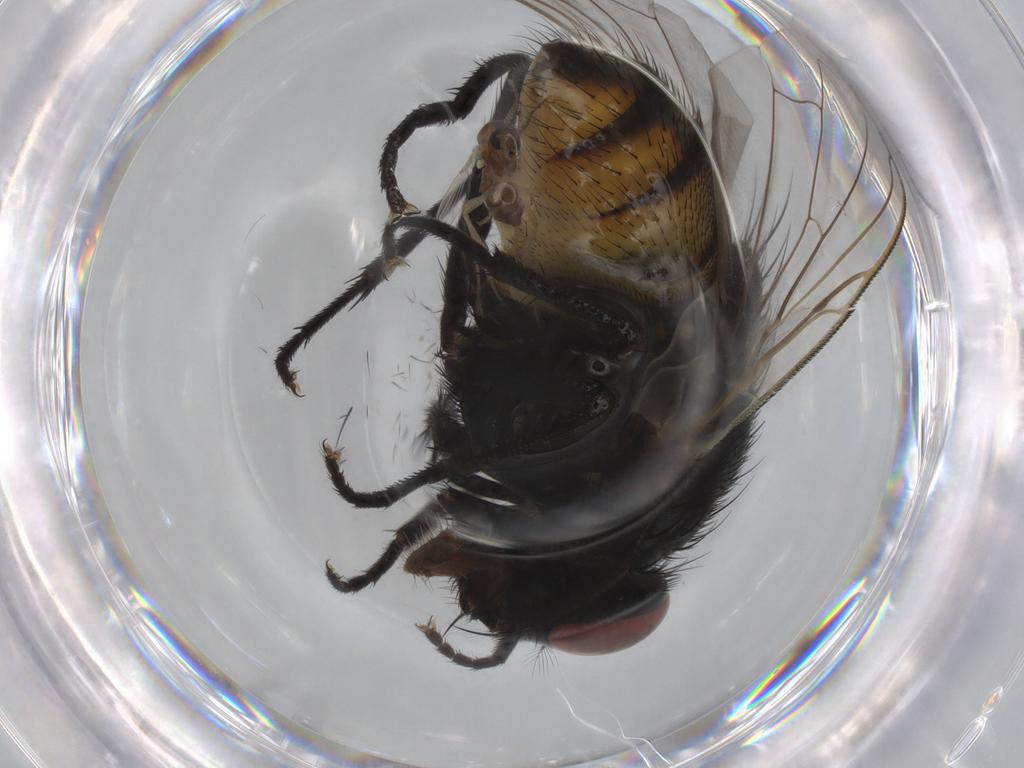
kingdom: Animalia
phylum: Arthropoda
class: Insecta
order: Diptera
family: Muscidae
